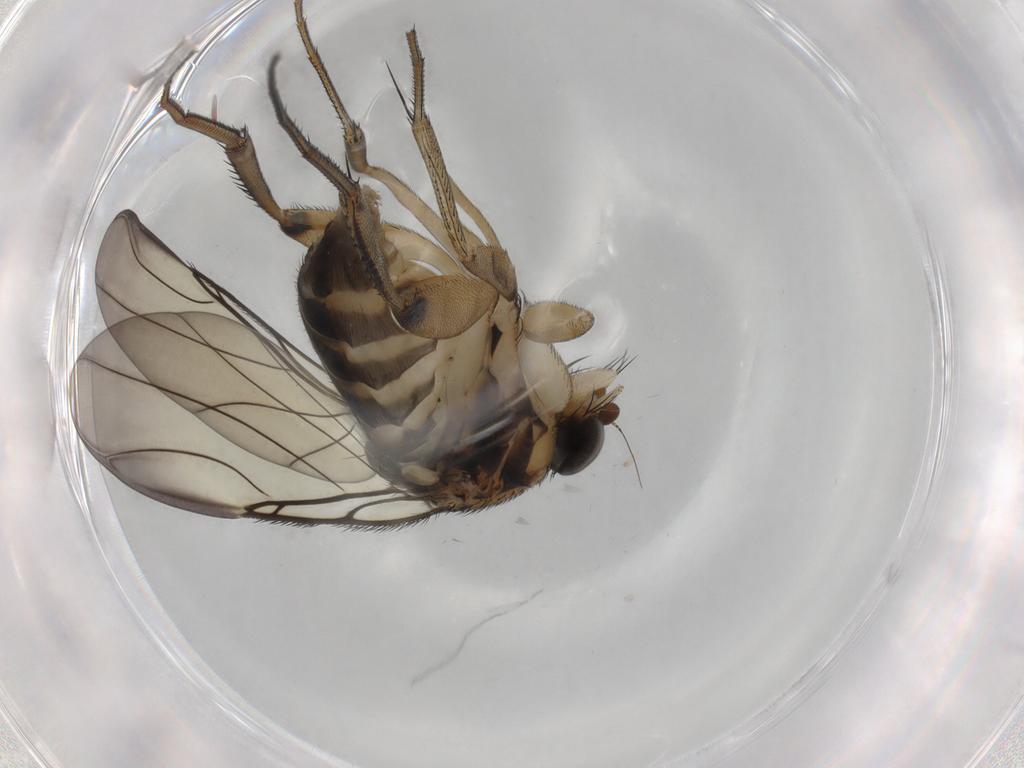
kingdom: Animalia
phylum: Arthropoda
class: Insecta
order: Diptera
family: Phoridae
